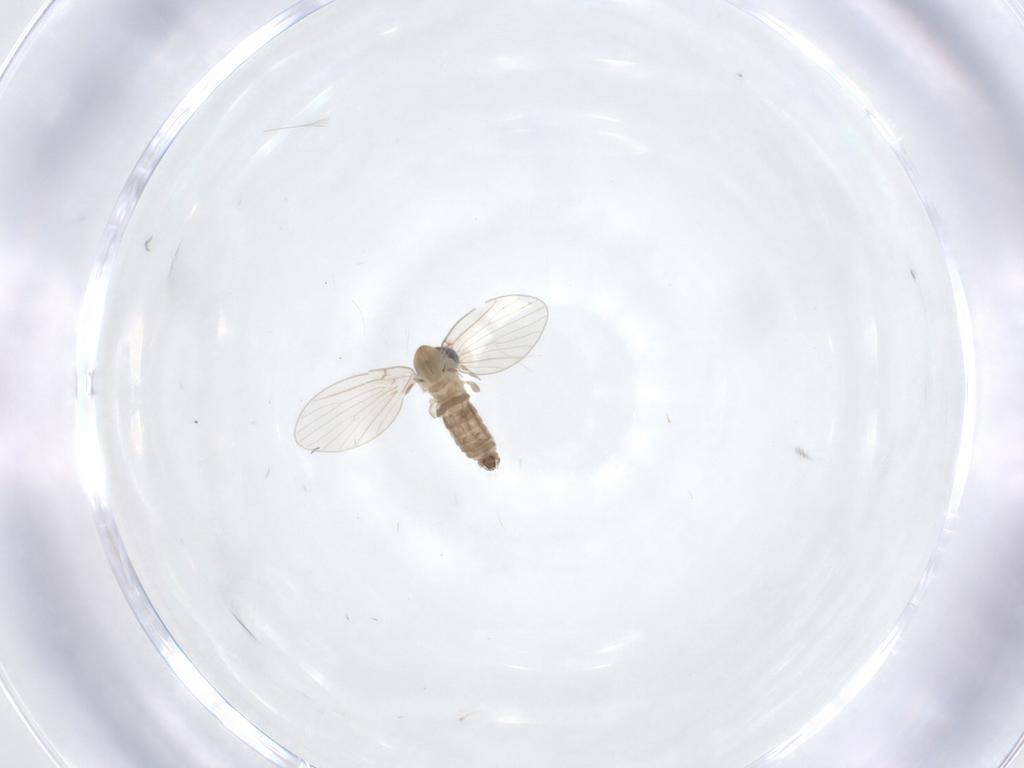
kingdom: Animalia
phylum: Arthropoda
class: Insecta
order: Diptera
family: Psychodidae
